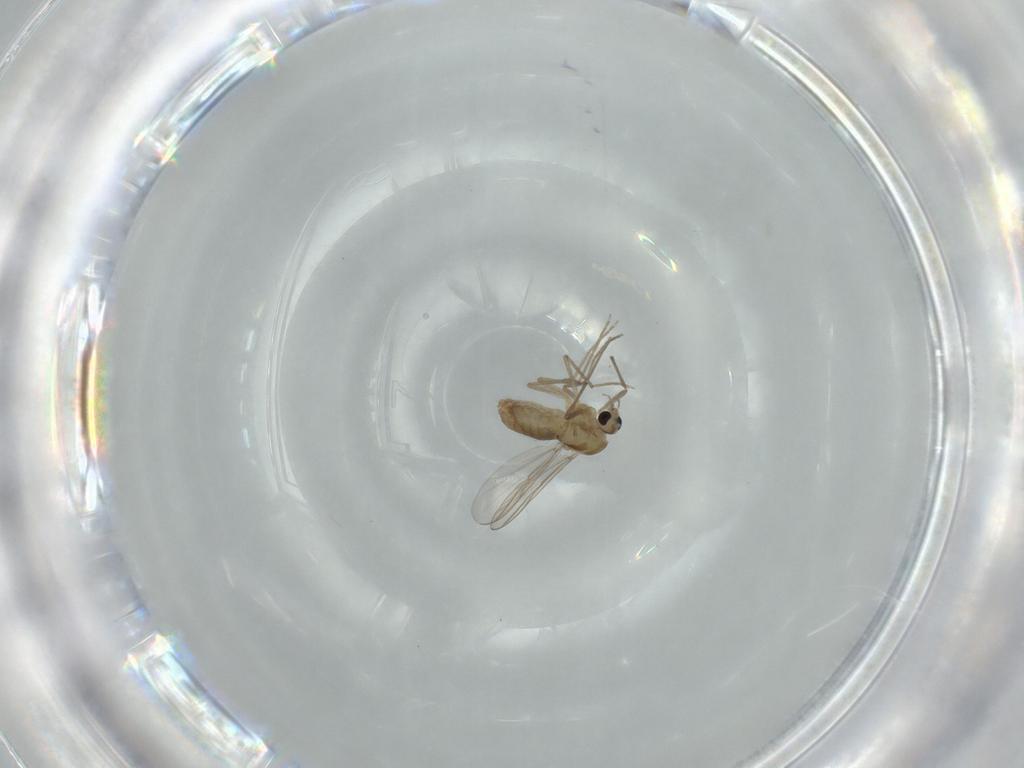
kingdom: Animalia
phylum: Arthropoda
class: Insecta
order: Diptera
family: Chironomidae
